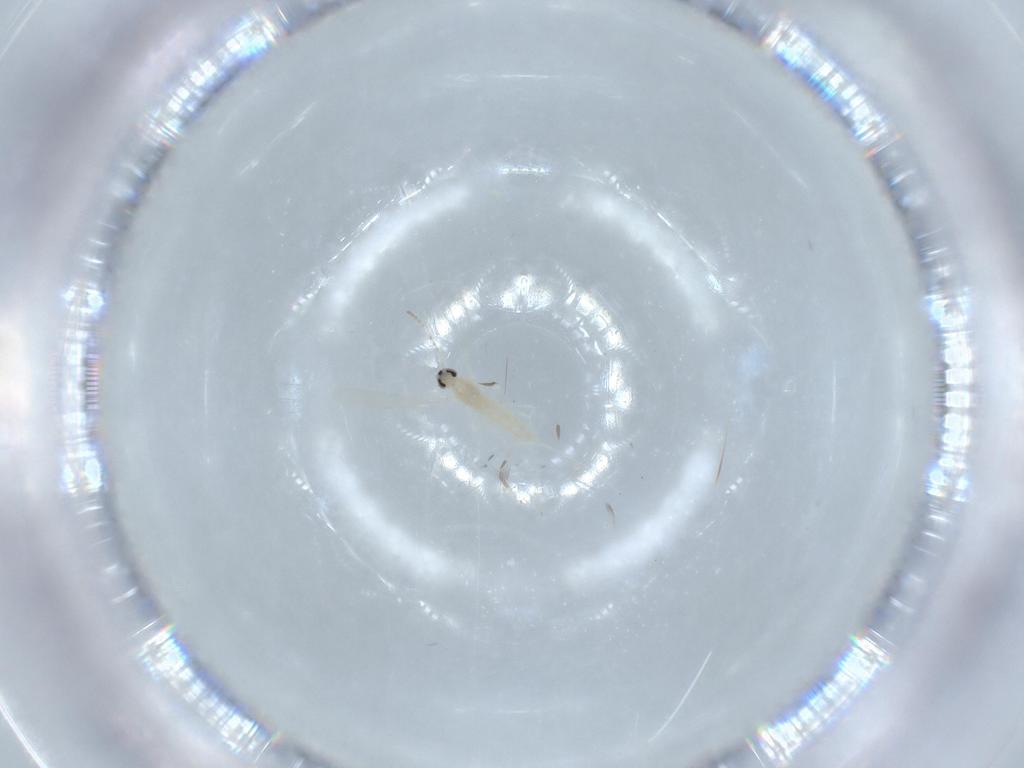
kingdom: Animalia
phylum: Arthropoda
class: Insecta
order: Diptera
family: Cecidomyiidae
